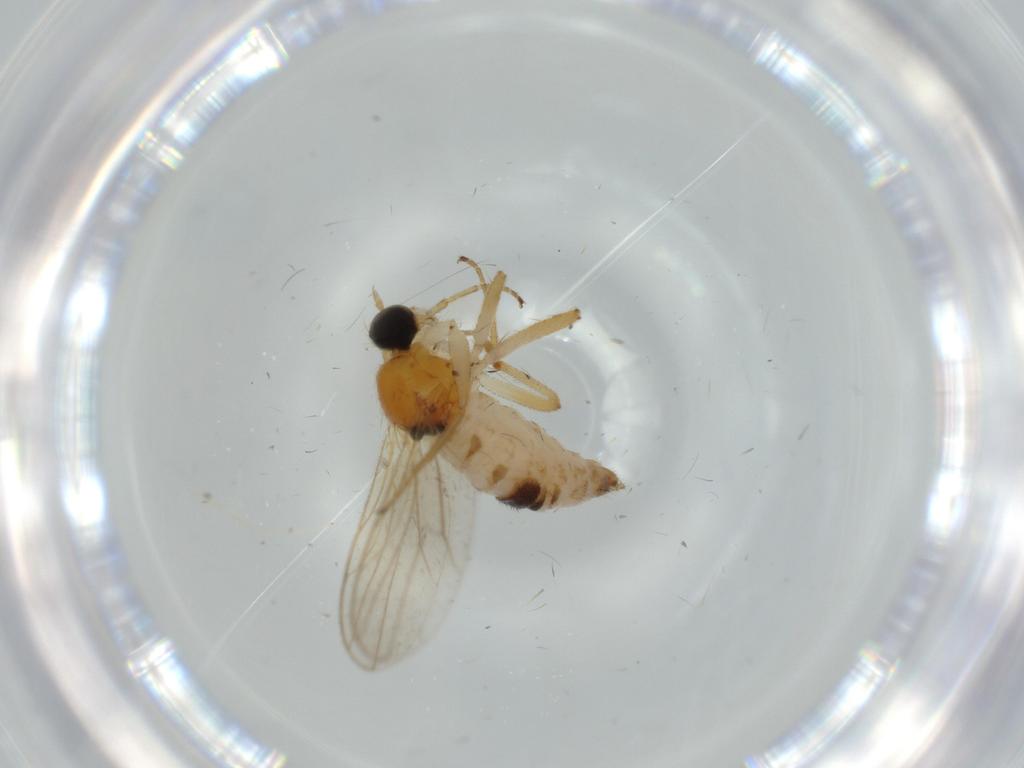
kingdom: Animalia
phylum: Arthropoda
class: Insecta
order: Diptera
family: Hybotidae
